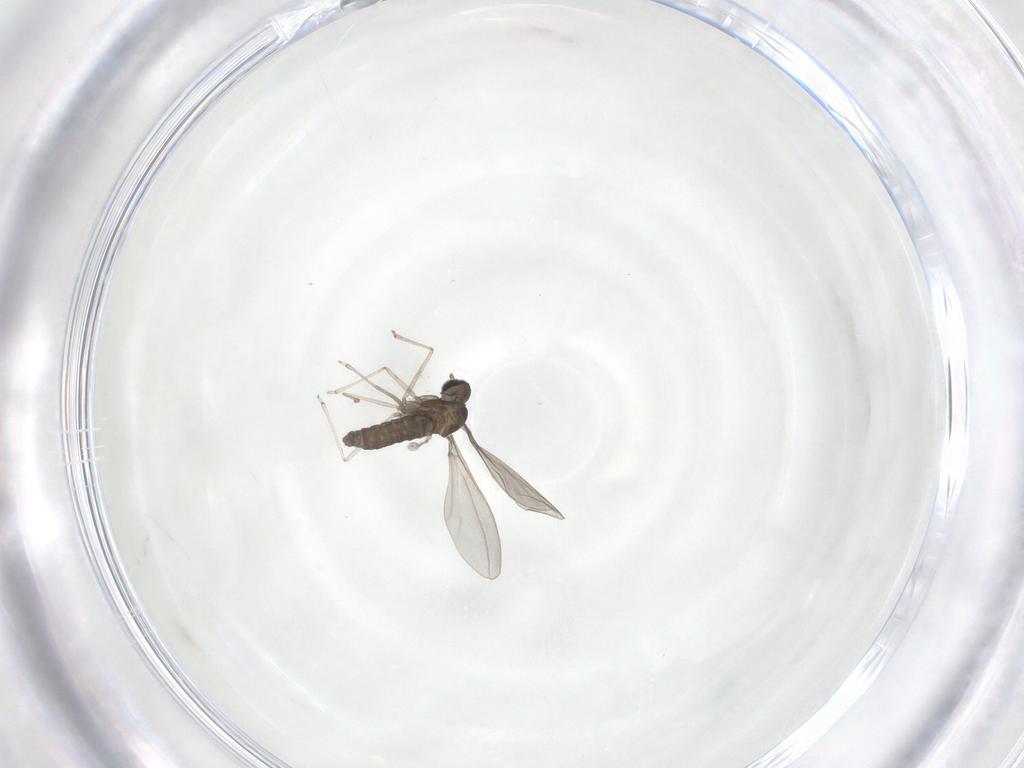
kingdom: Animalia
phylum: Arthropoda
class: Insecta
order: Diptera
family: Cecidomyiidae
